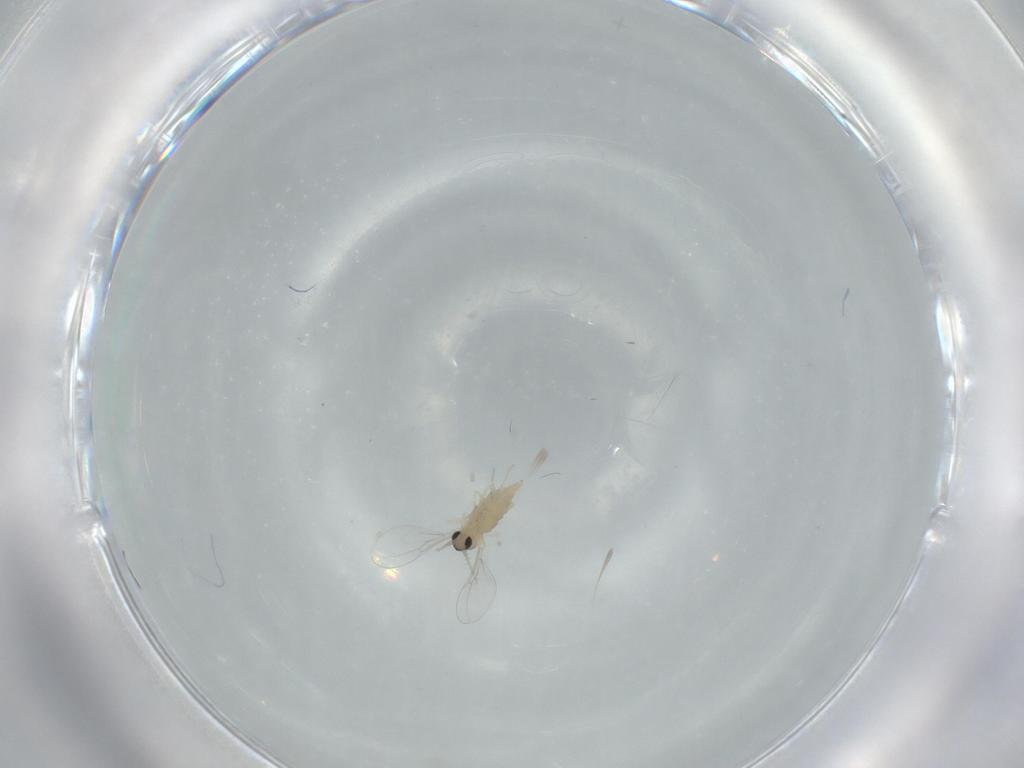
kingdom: Animalia
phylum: Arthropoda
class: Insecta
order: Diptera
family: Cecidomyiidae
